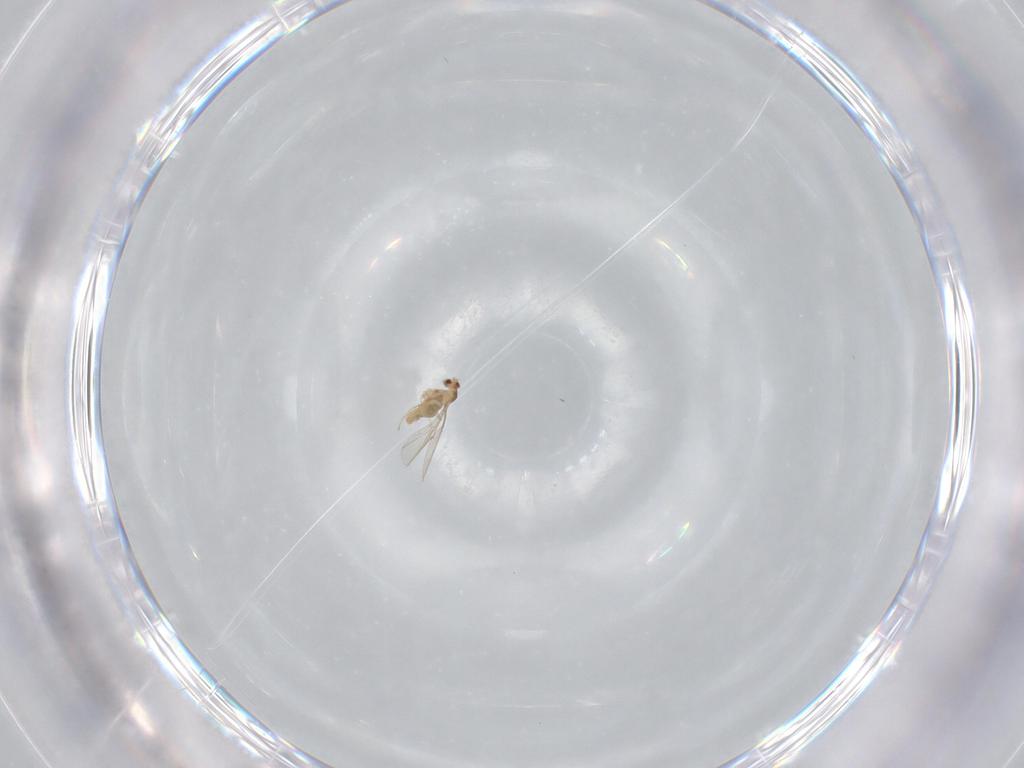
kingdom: Animalia
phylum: Arthropoda
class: Insecta
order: Diptera
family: Cecidomyiidae
